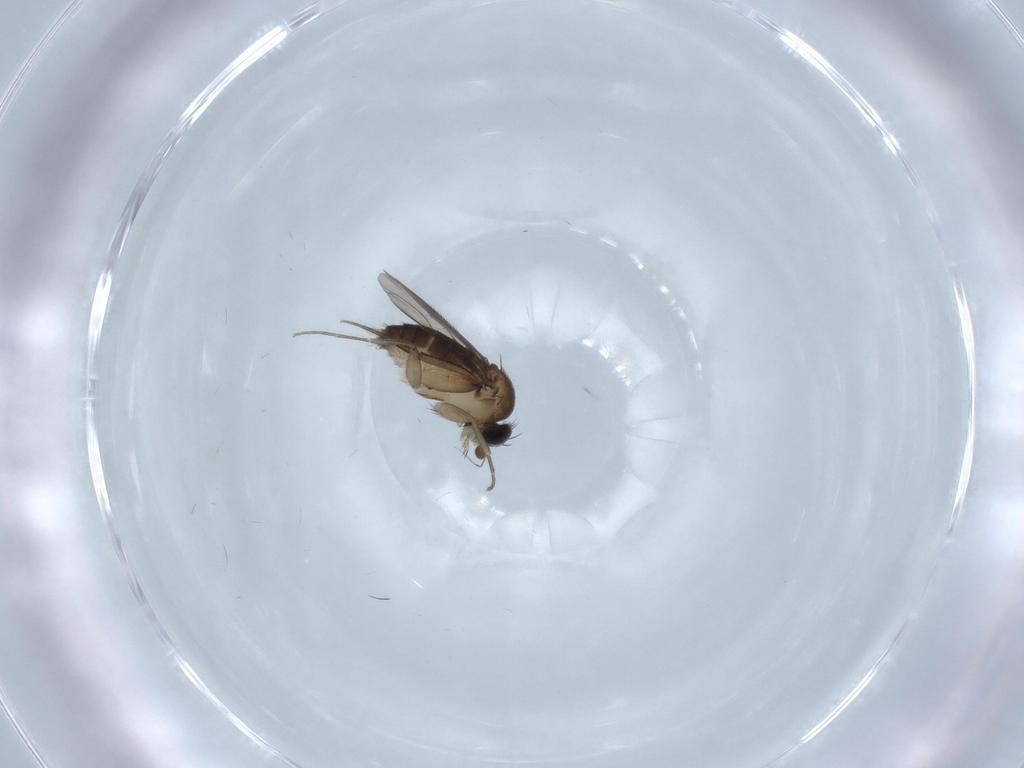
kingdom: Animalia
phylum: Arthropoda
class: Insecta
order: Diptera
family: Phoridae
